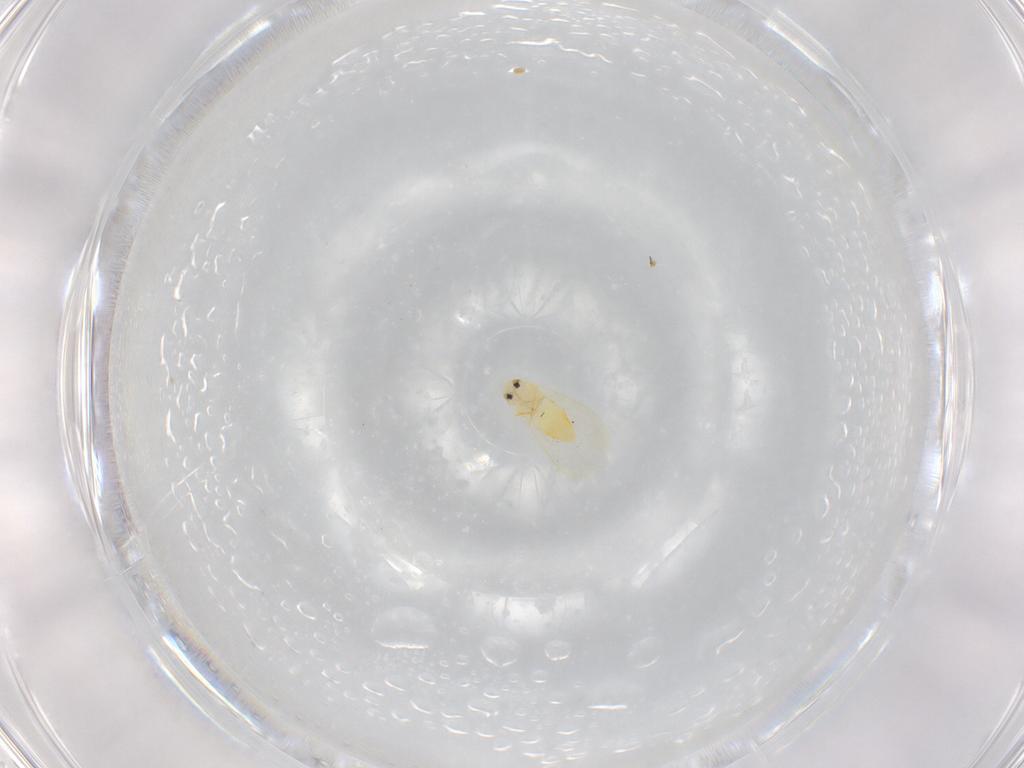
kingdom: Animalia
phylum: Arthropoda
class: Insecta
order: Hemiptera
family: Aleyrodidae
